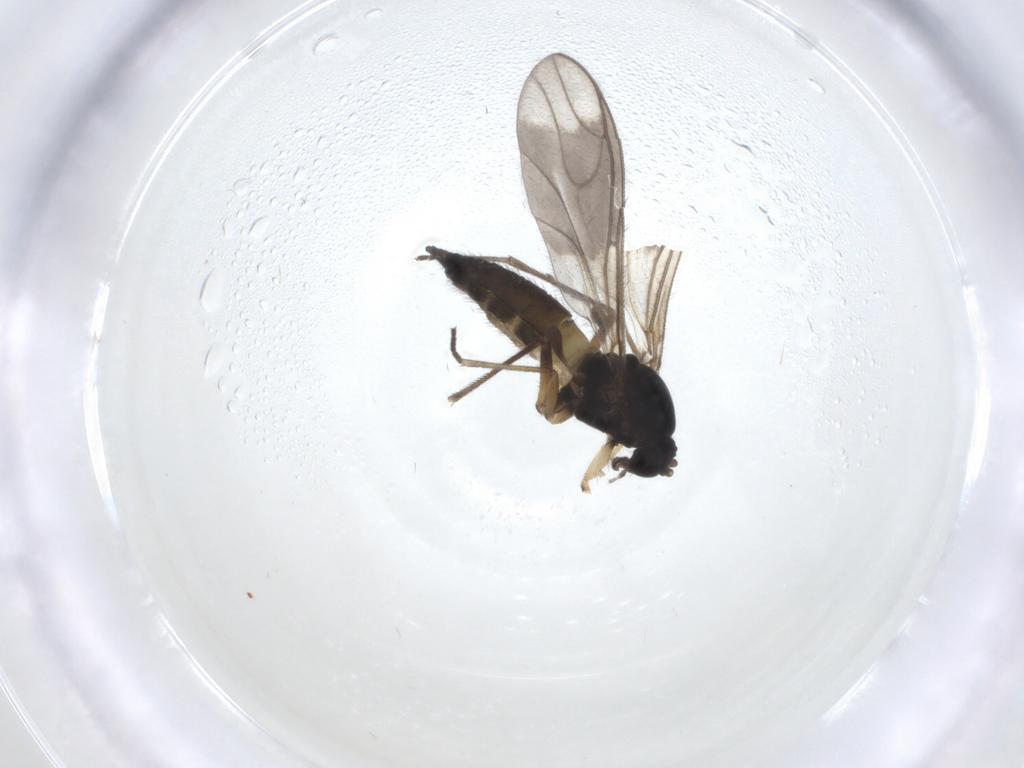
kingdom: Animalia
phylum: Arthropoda
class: Insecta
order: Diptera
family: Sciaridae
